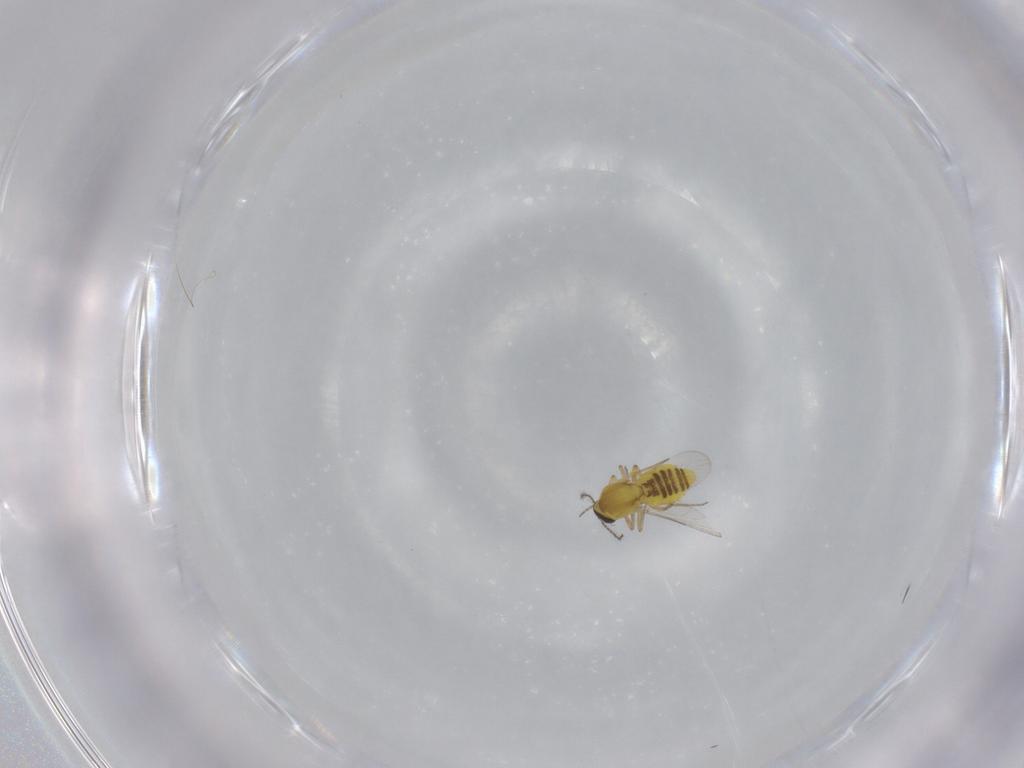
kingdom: Animalia
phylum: Arthropoda
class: Insecta
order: Diptera
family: Ceratopogonidae
